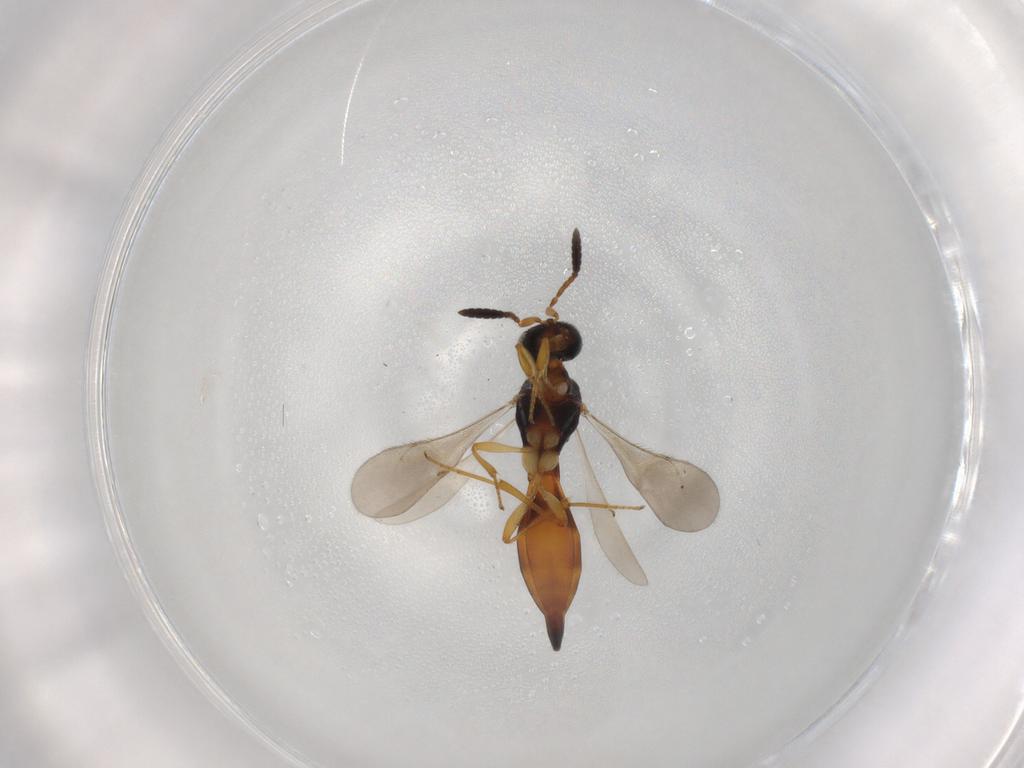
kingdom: Animalia
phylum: Arthropoda
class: Insecta
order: Hymenoptera
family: Scelionidae
